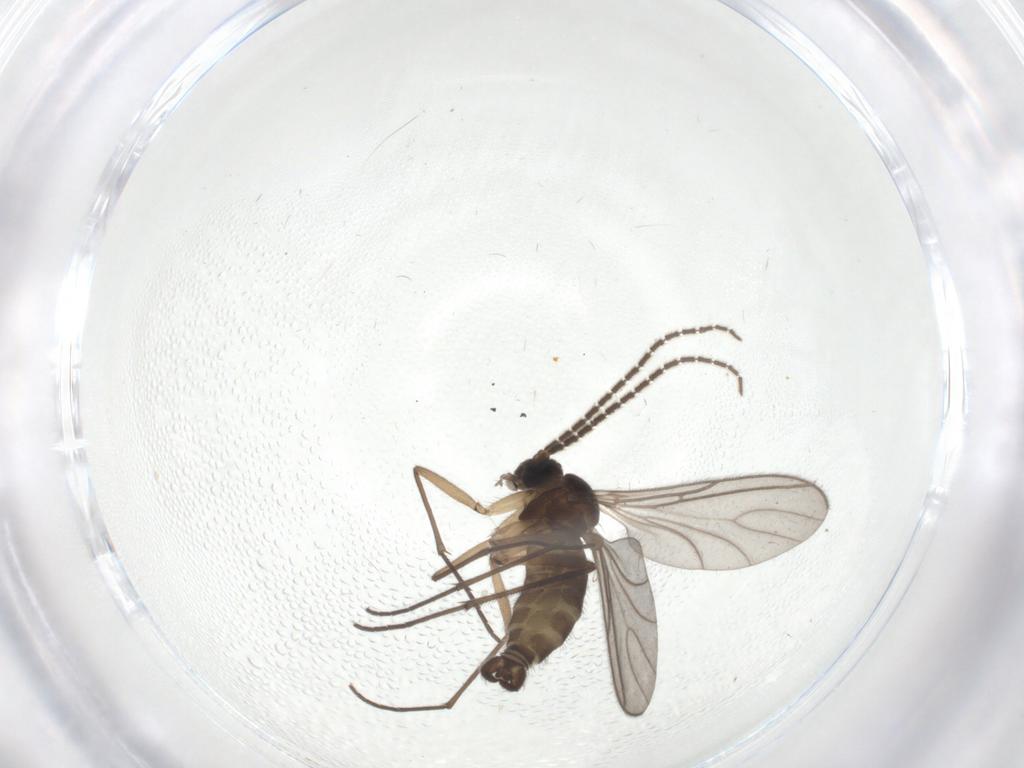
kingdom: Animalia
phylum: Arthropoda
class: Insecta
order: Diptera
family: Sciaridae
